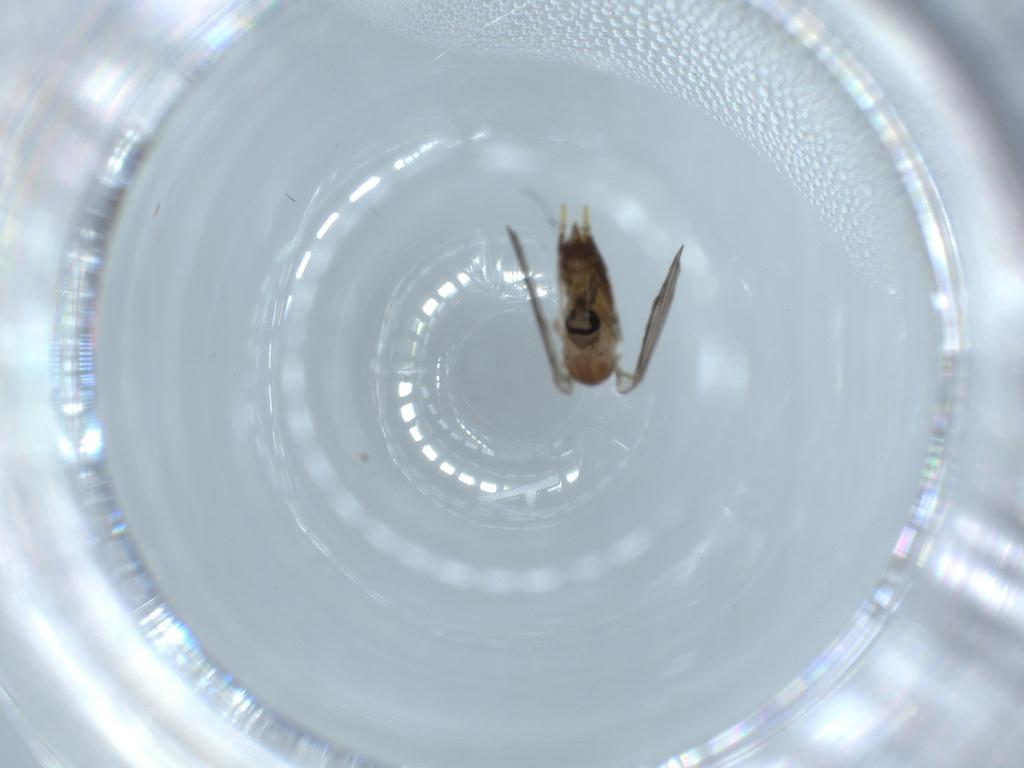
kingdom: Animalia
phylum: Arthropoda
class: Insecta
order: Diptera
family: Psychodidae
